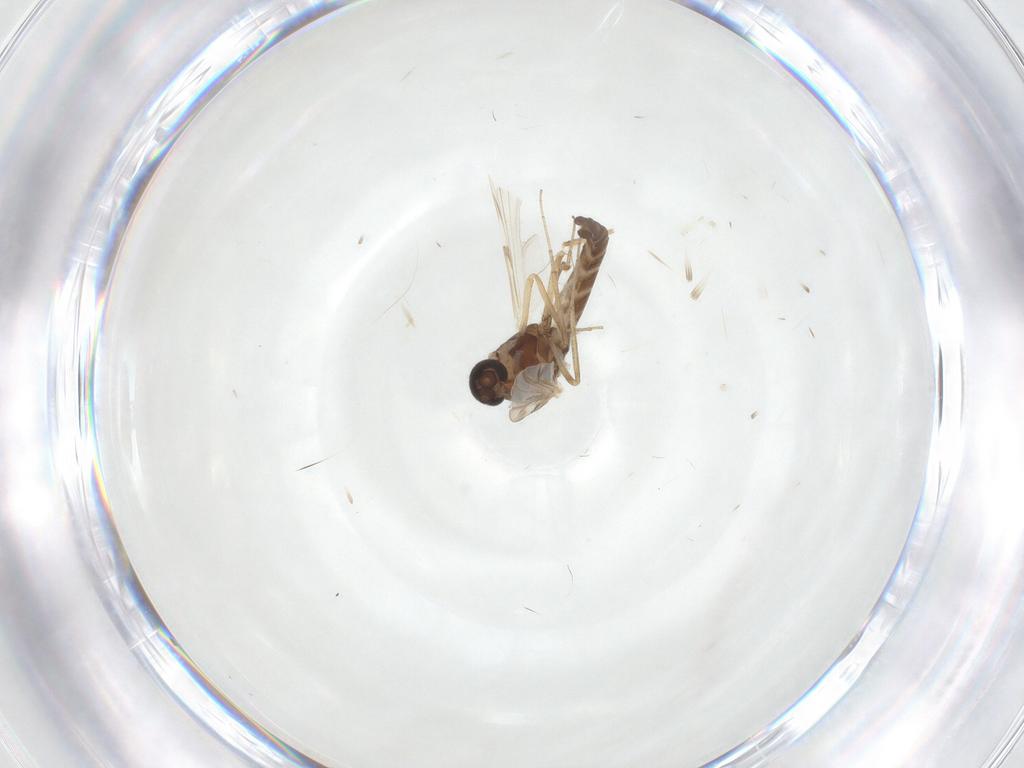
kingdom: Animalia
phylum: Arthropoda
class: Insecta
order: Diptera
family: Ceratopogonidae
